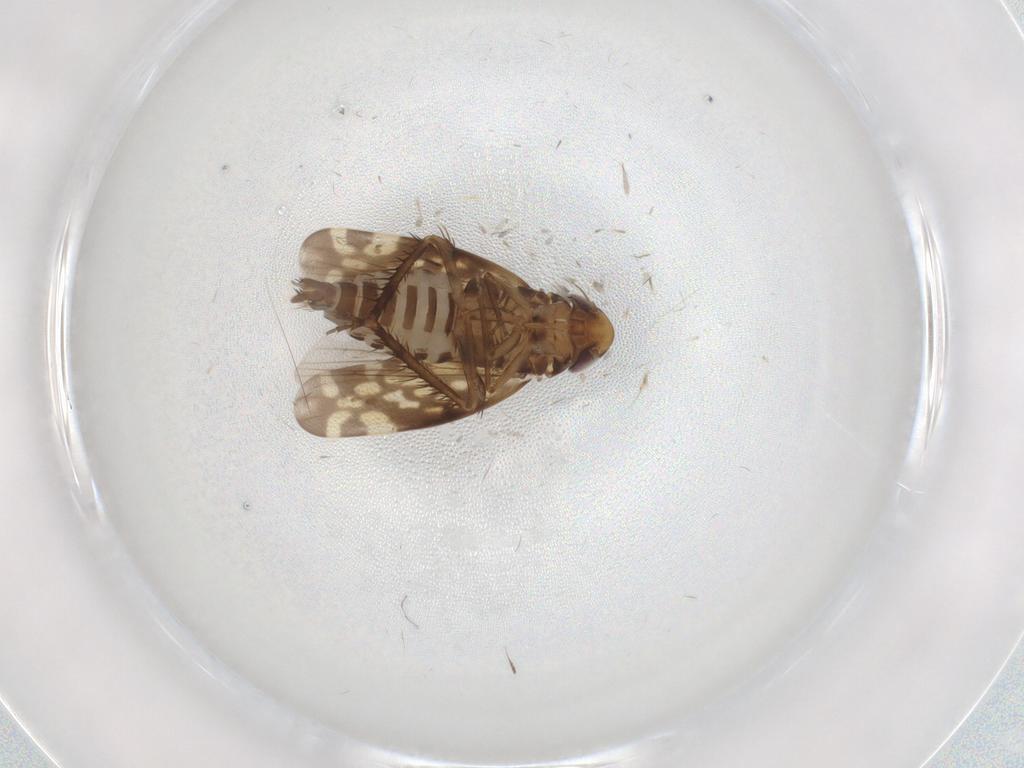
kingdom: Animalia
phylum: Arthropoda
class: Insecta
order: Hemiptera
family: Cicadellidae
